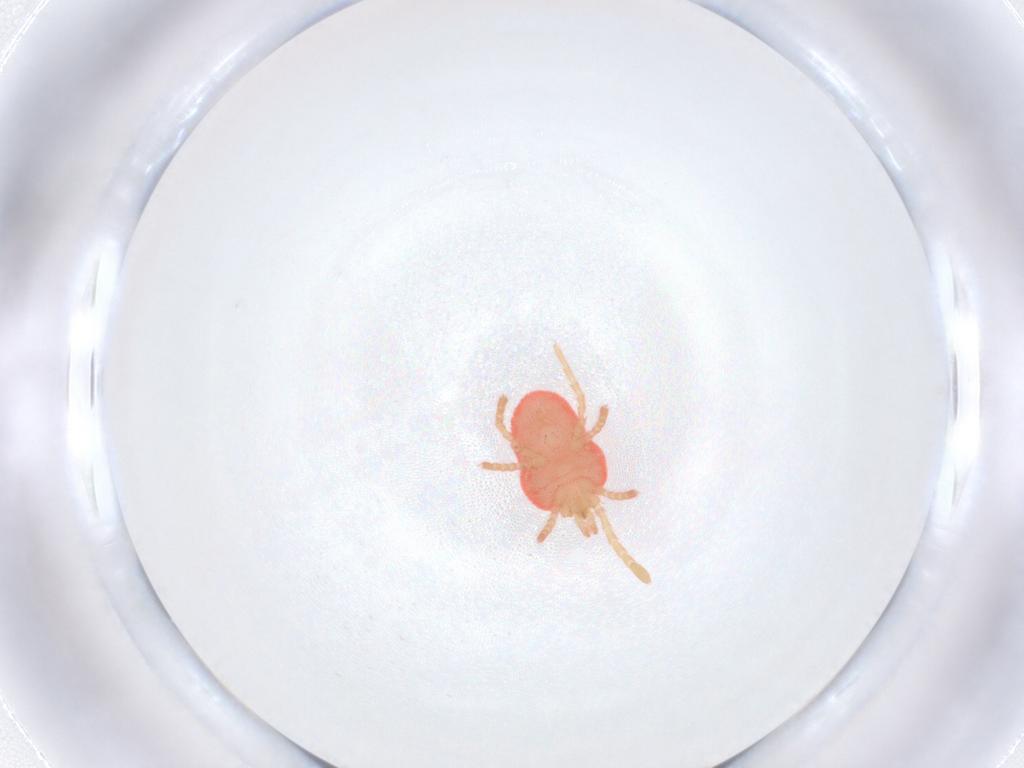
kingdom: Animalia
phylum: Arthropoda
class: Arachnida
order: Trombidiformes
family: Microtrombidiidae
